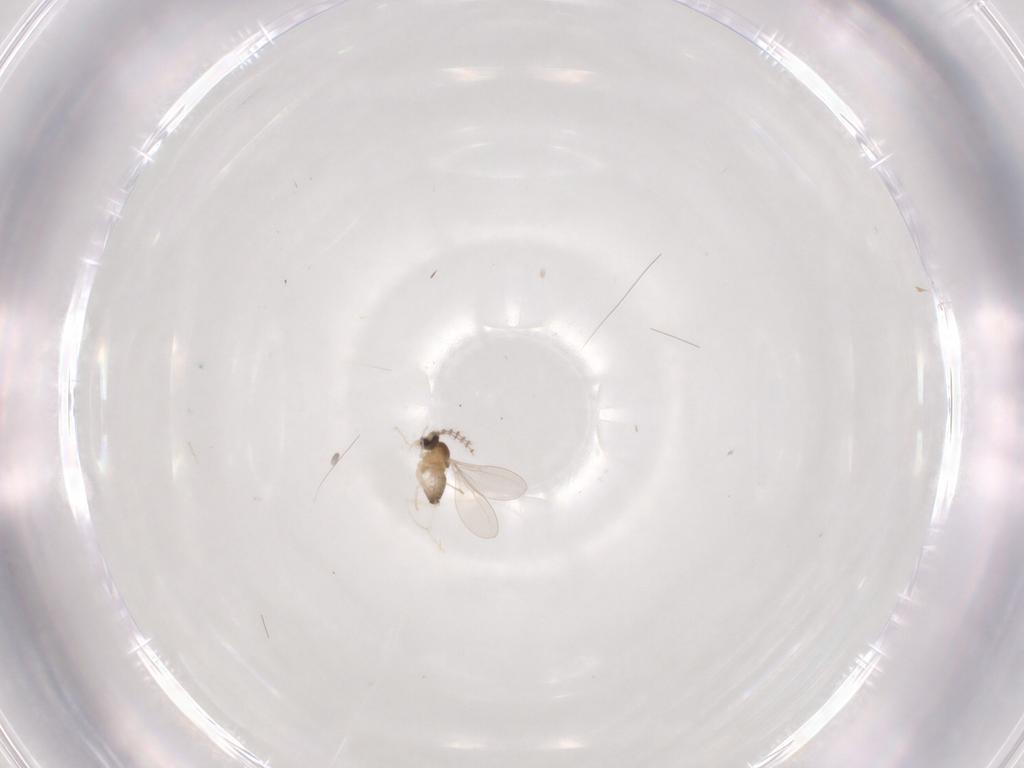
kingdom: Animalia
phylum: Arthropoda
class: Insecta
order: Diptera
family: Cecidomyiidae
